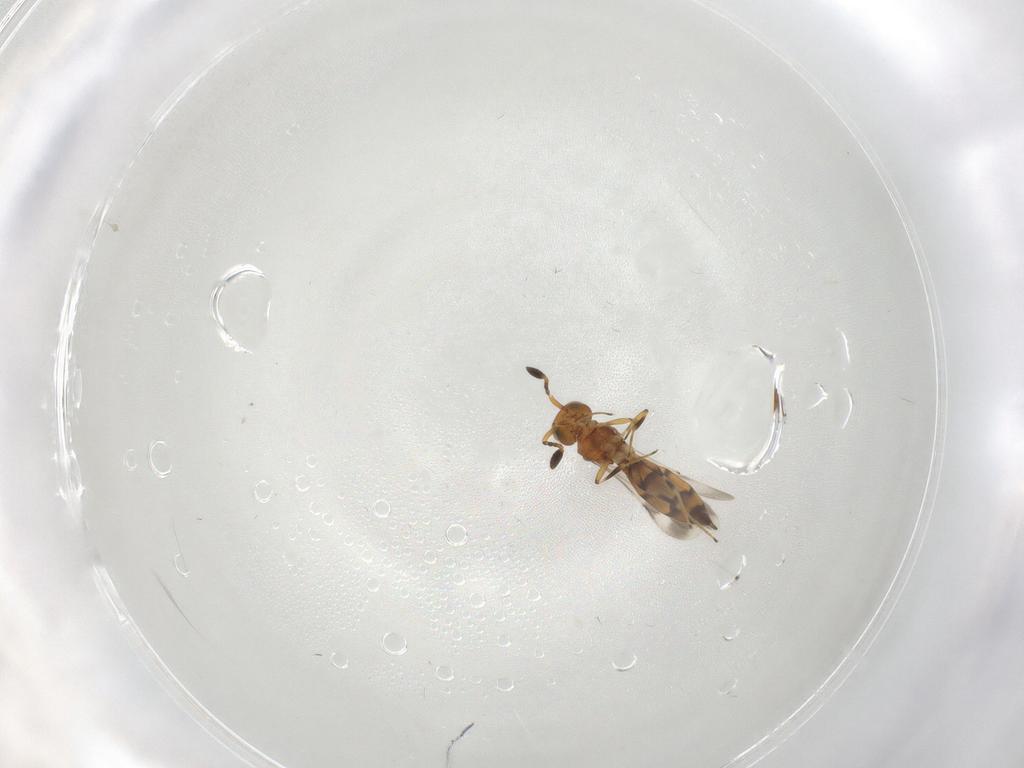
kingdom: Animalia
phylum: Arthropoda
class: Insecta
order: Hymenoptera
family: Scelionidae
